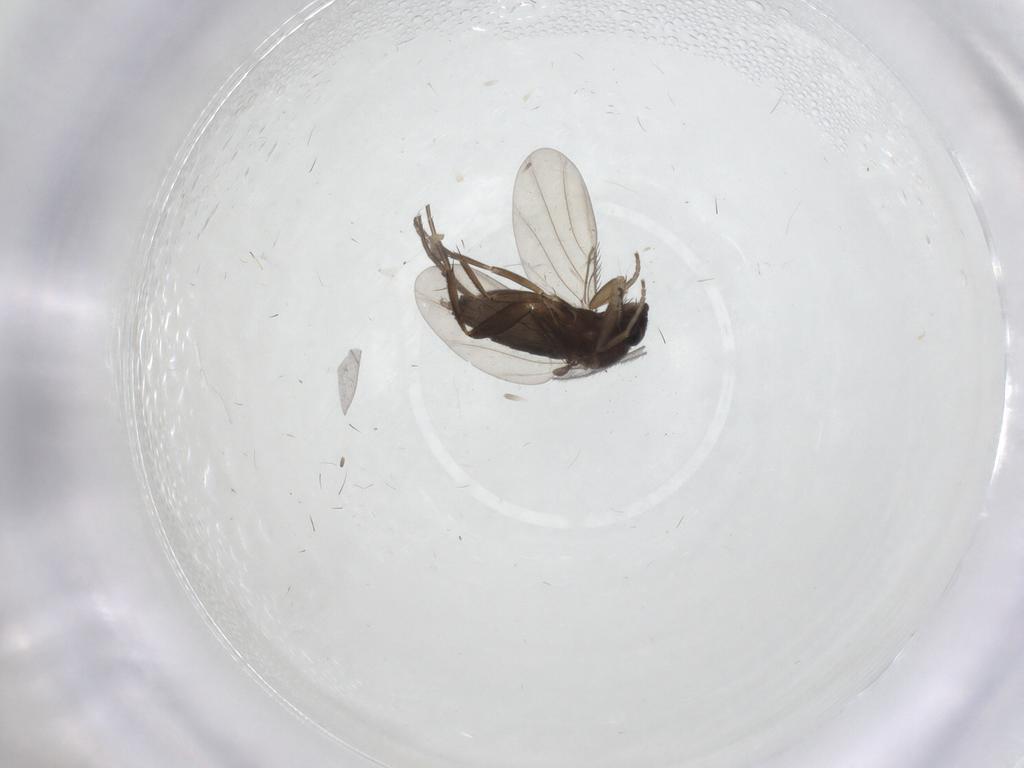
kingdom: Animalia
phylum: Arthropoda
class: Insecta
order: Diptera
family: Phoridae
